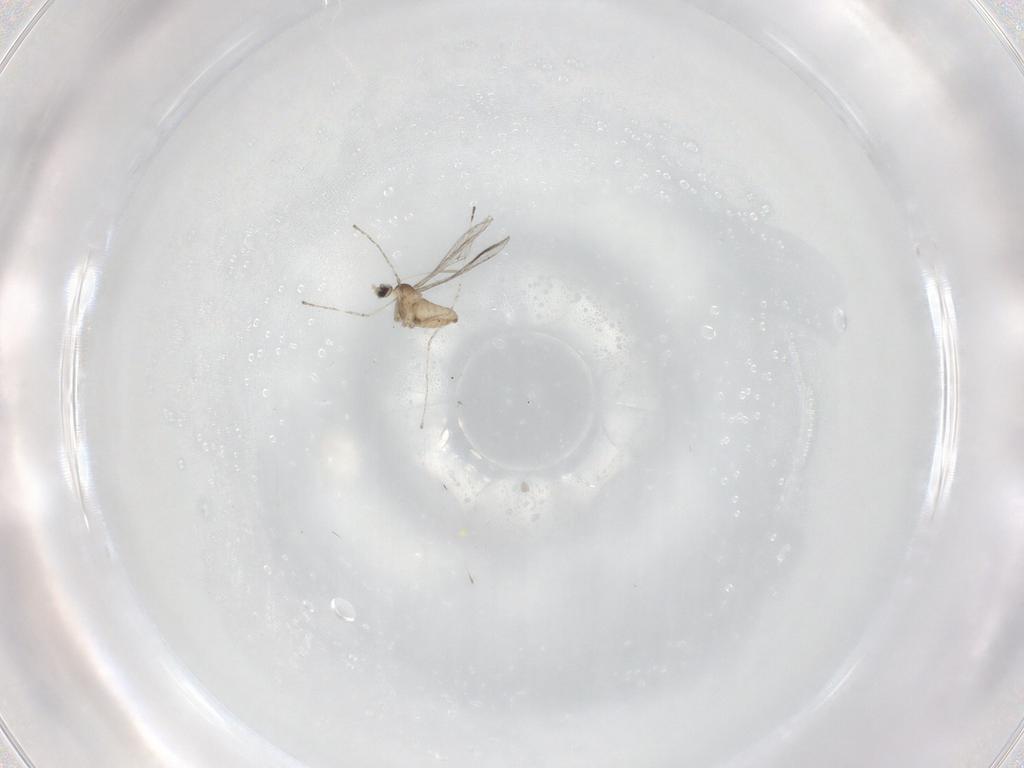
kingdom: Animalia
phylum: Arthropoda
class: Insecta
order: Diptera
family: Cecidomyiidae
